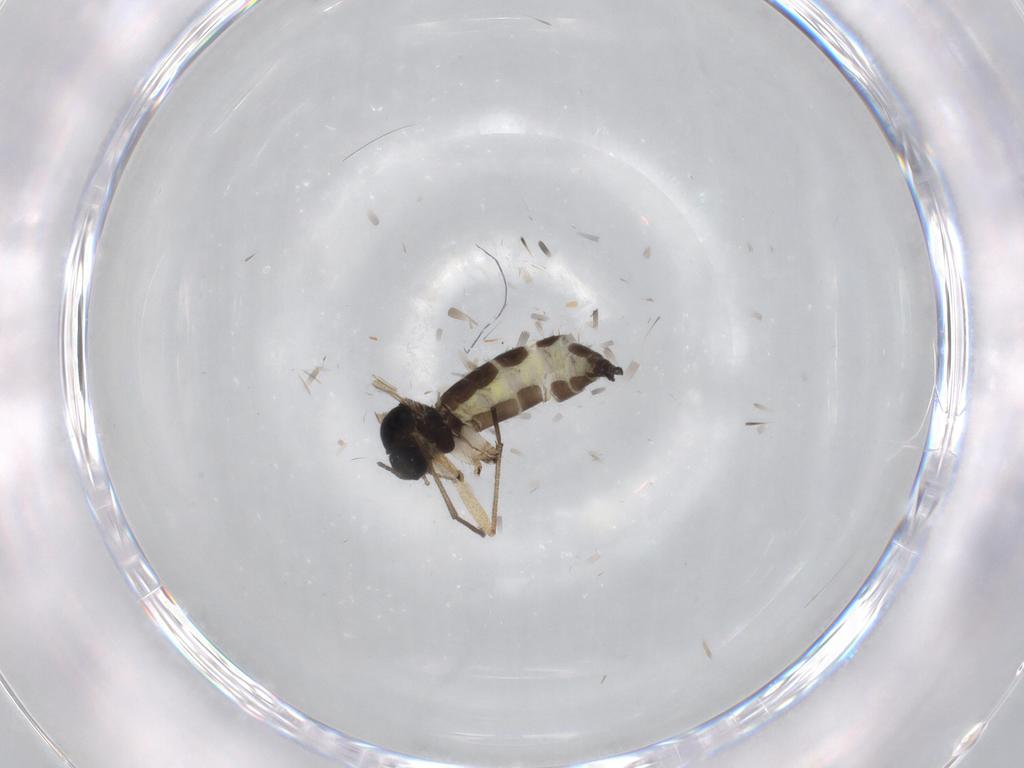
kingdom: Animalia
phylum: Arthropoda
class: Insecta
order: Diptera
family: Sciaridae
